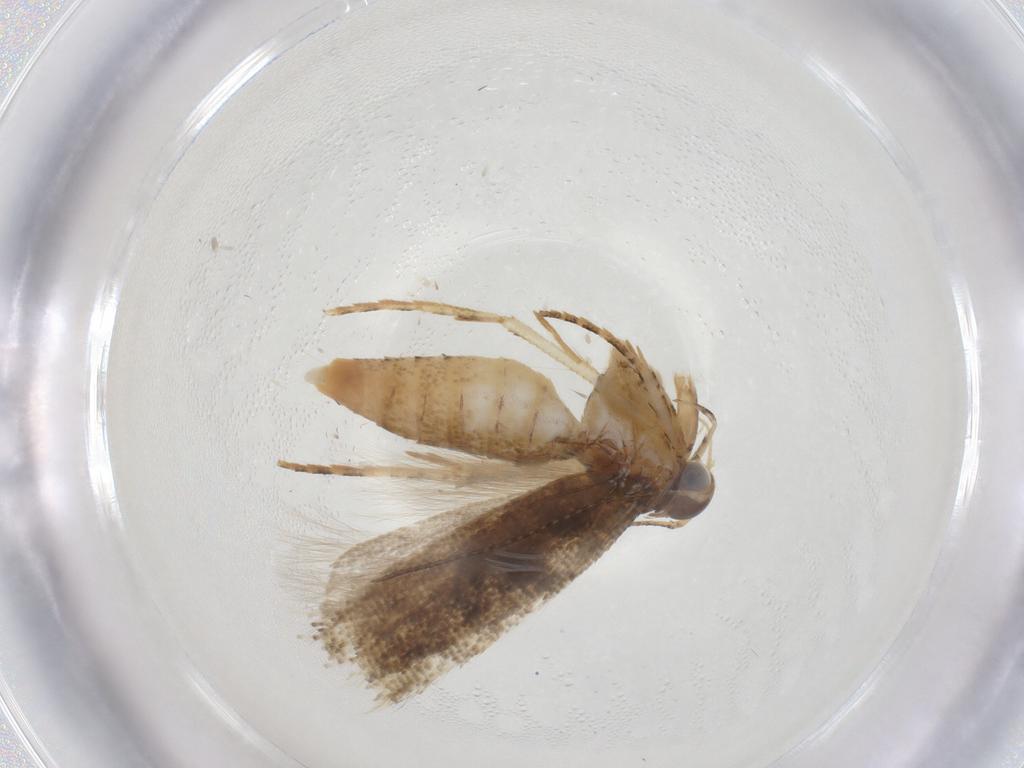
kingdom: Animalia
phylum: Arthropoda
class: Insecta
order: Lepidoptera
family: Gelechiidae
